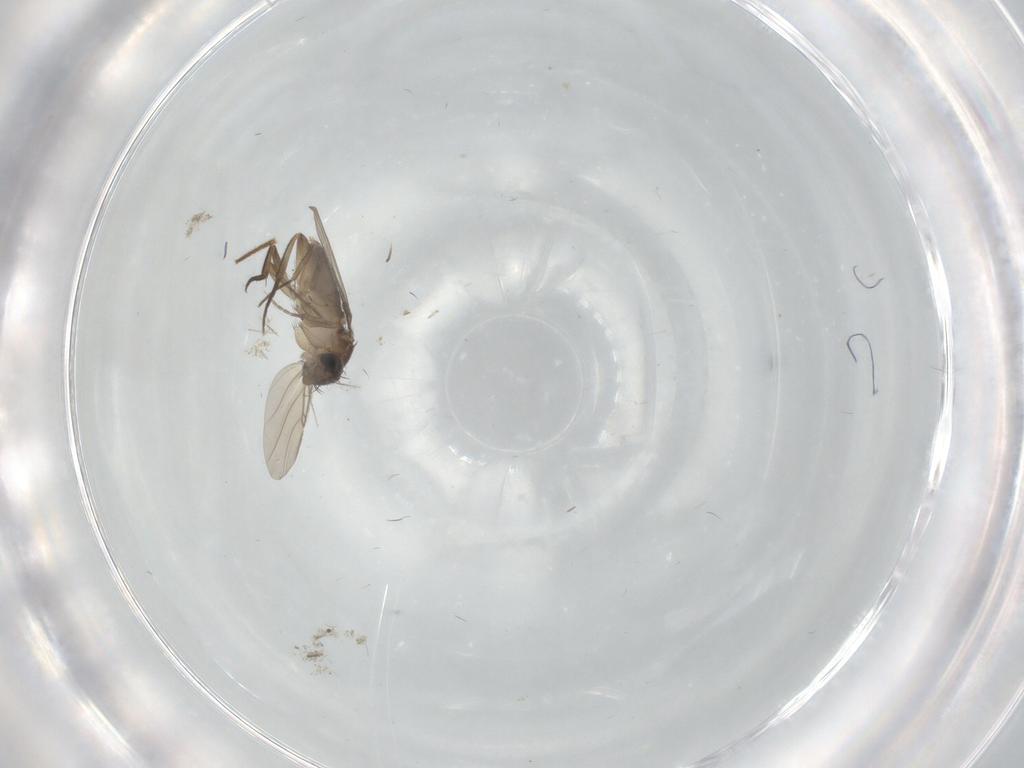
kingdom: Animalia
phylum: Arthropoda
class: Insecta
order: Diptera
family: Phoridae
